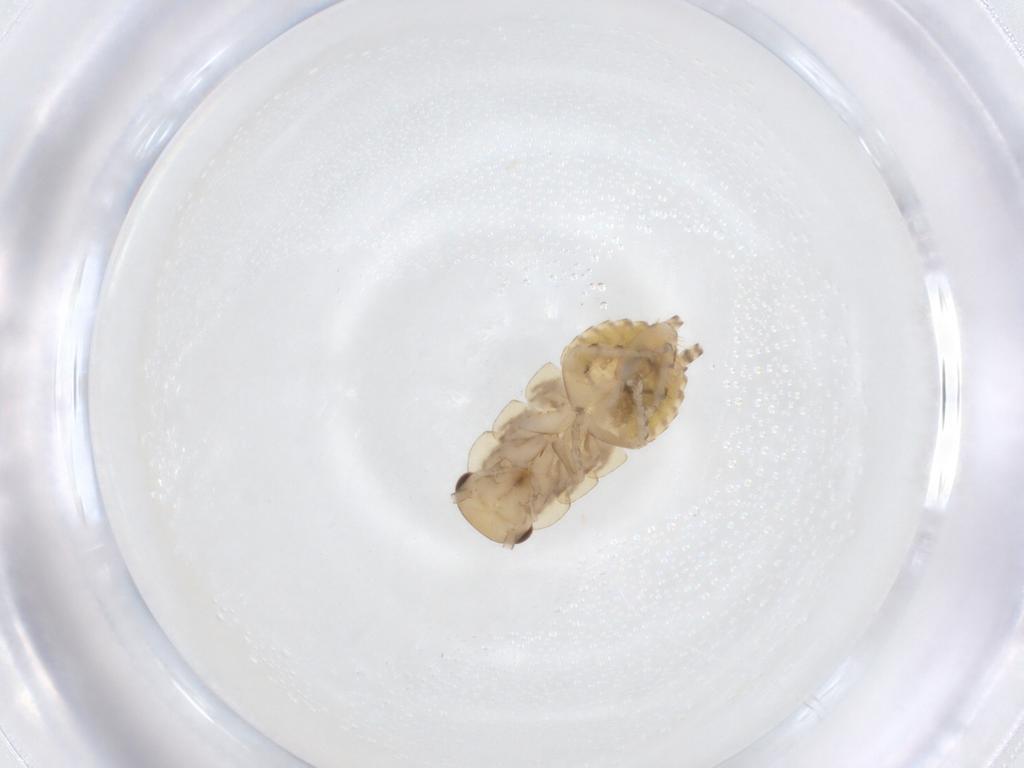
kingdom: Animalia
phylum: Arthropoda
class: Insecta
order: Blattodea
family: Ectobiidae
